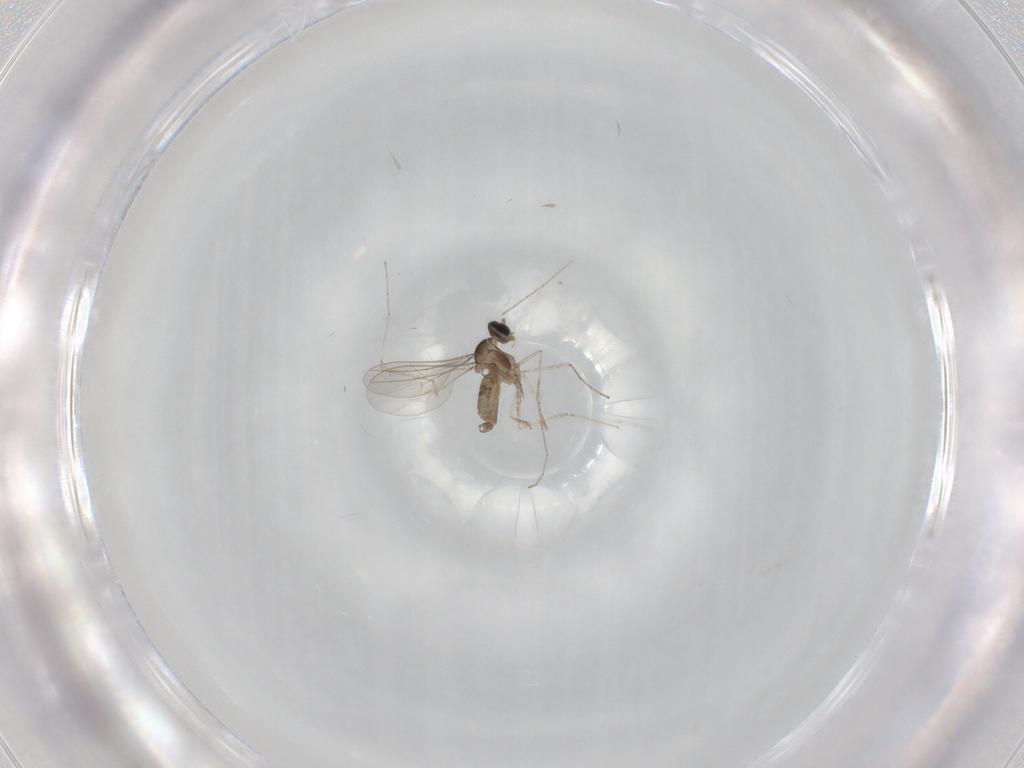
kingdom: Animalia
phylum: Arthropoda
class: Insecta
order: Diptera
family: Cecidomyiidae
